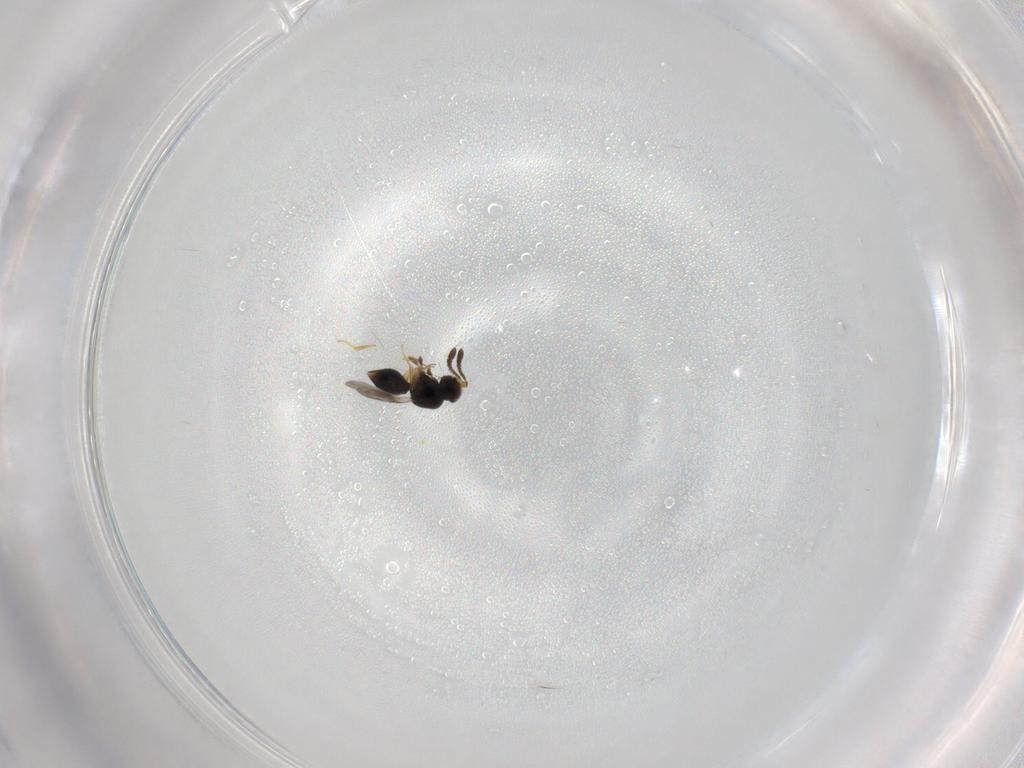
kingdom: Animalia
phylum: Arthropoda
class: Insecta
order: Hymenoptera
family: Ceraphronidae
